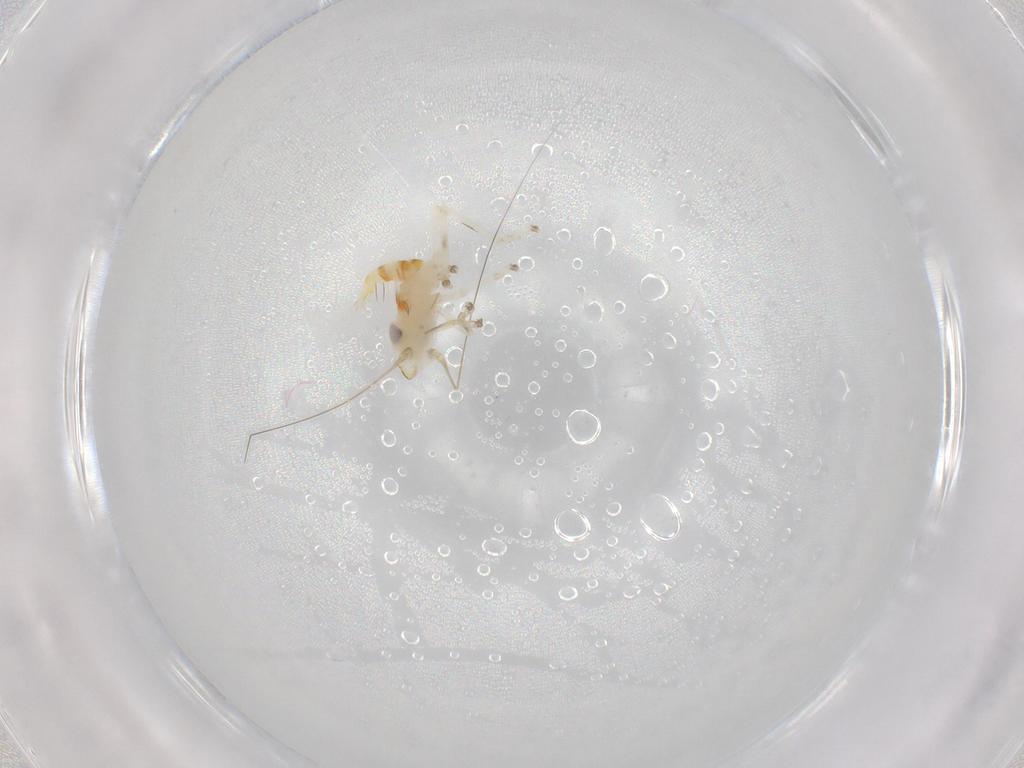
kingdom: Animalia
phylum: Arthropoda
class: Insecta
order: Hemiptera
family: Cicadellidae
